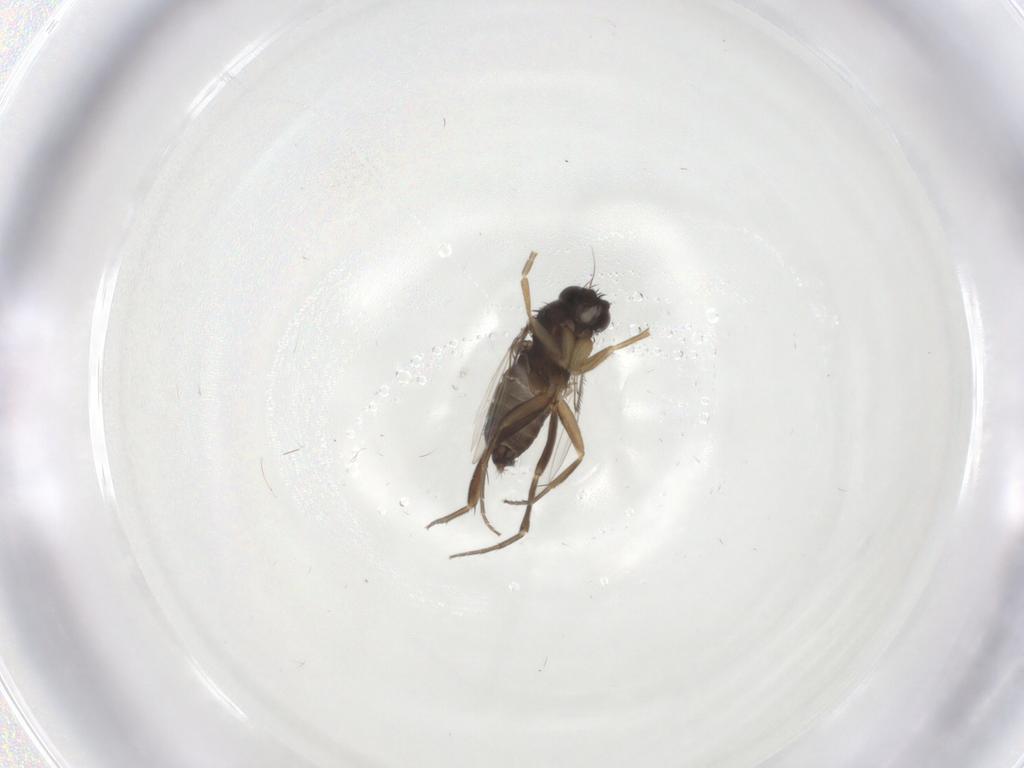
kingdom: Animalia
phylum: Arthropoda
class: Insecta
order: Diptera
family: Phoridae
